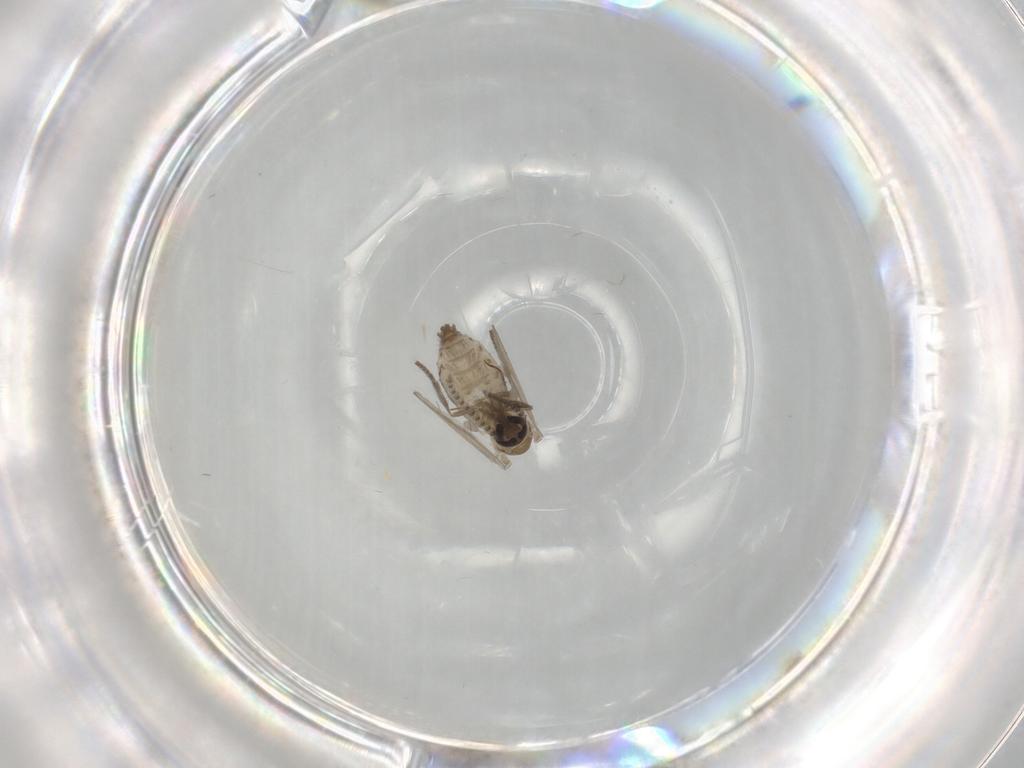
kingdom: Animalia
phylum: Arthropoda
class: Insecta
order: Diptera
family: Psychodidae
